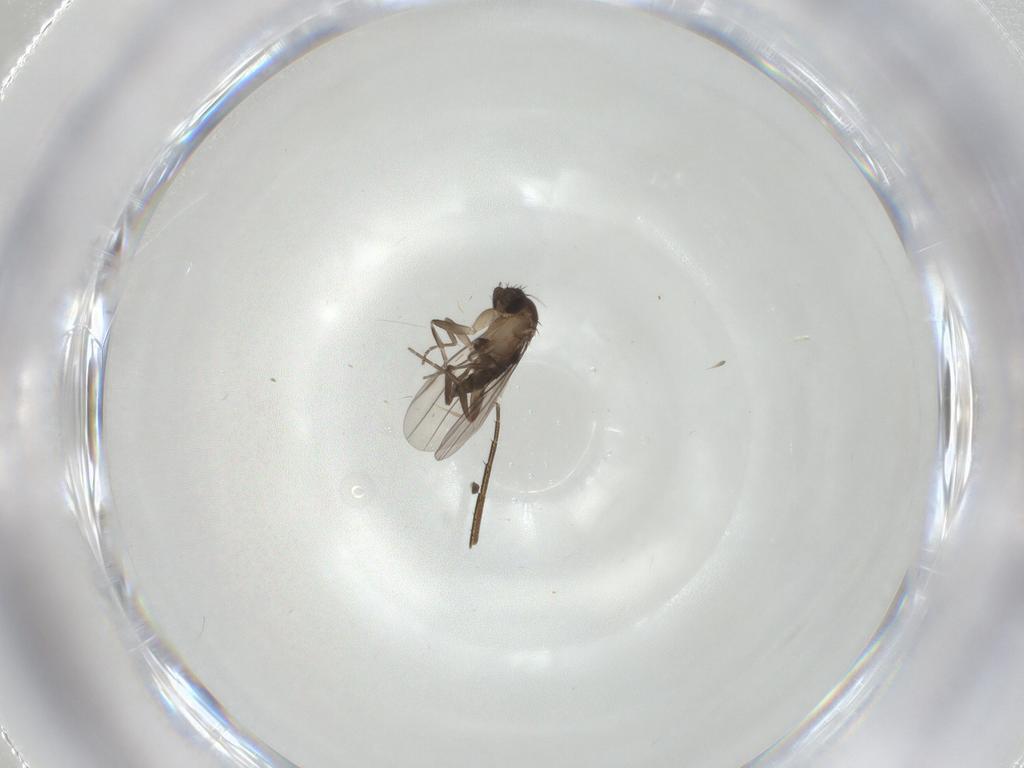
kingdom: Animalia
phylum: Arthropoda
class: Insecta
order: Diptera
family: Phoridae
